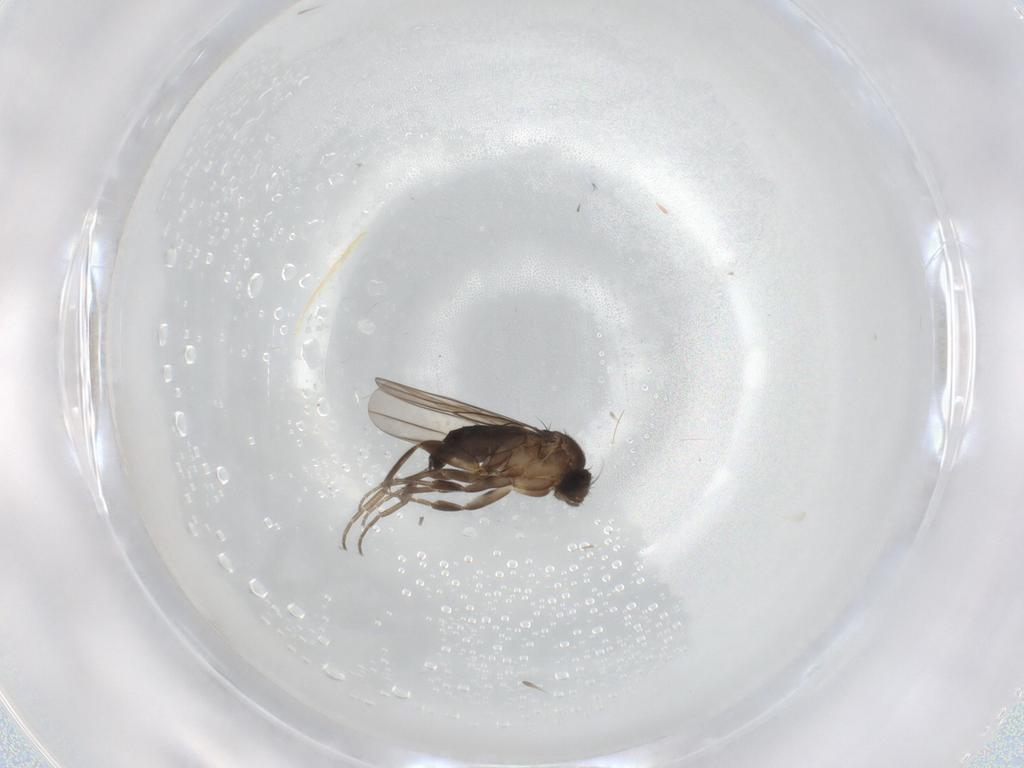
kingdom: Animalia
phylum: Arthropoda
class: Insecta
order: Diptera
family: Phoridae
